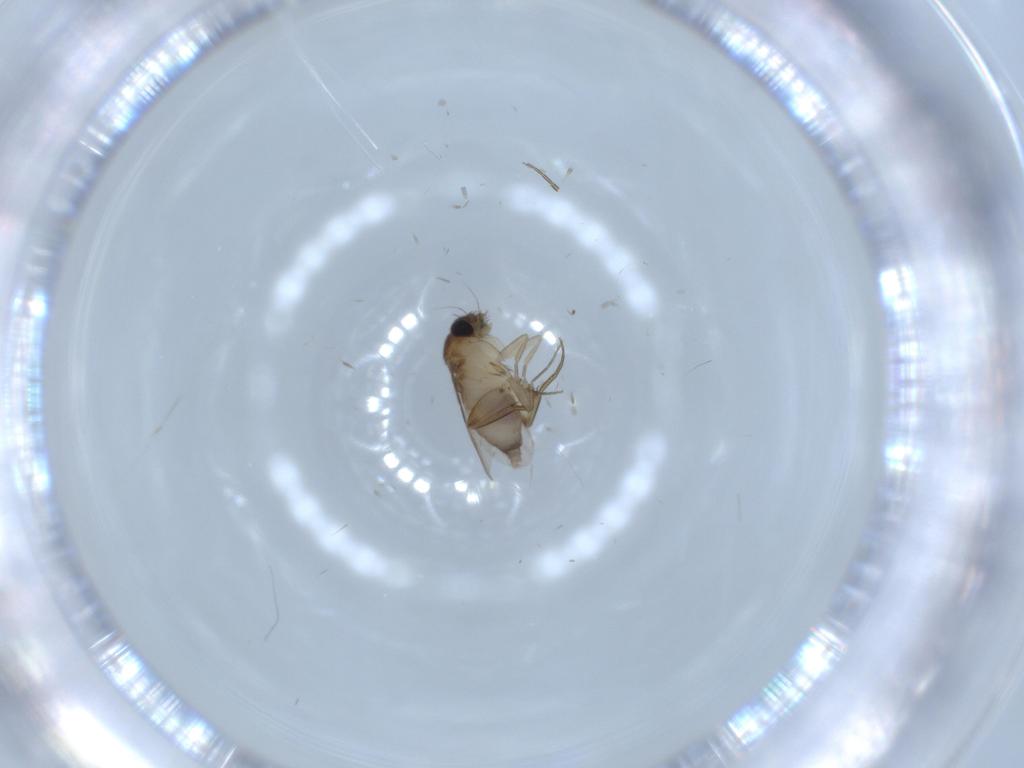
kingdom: Animalia
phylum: Arthropoda
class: Insecta
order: Diptera
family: Phoridae
